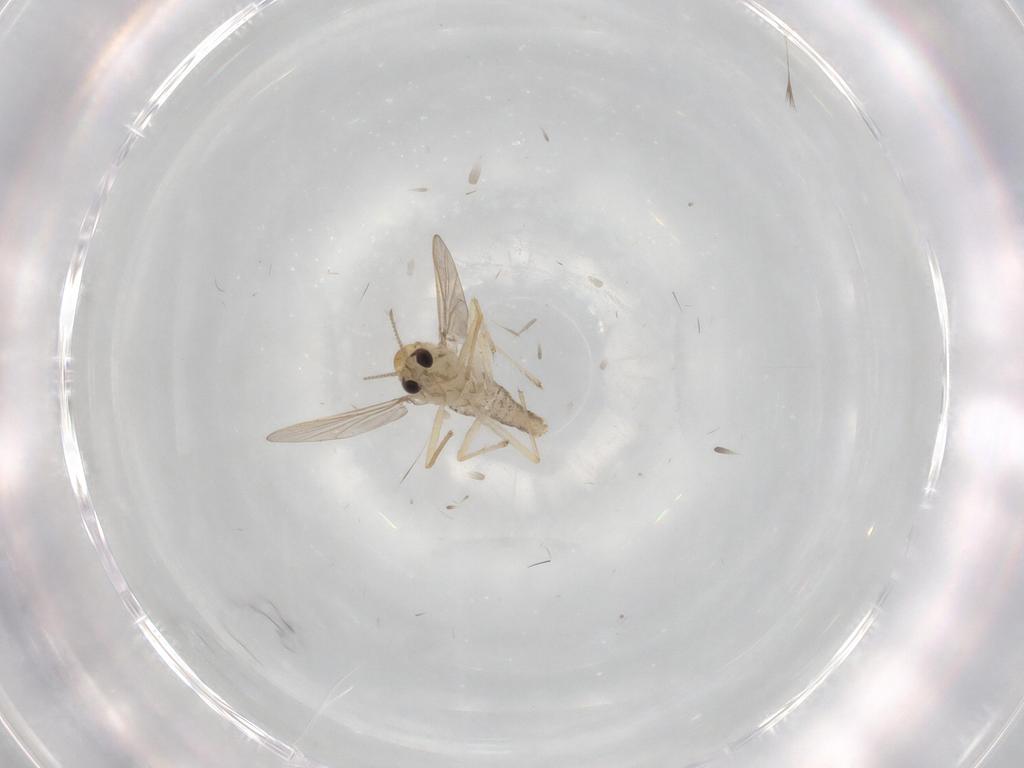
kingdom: Animalia
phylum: Arthropoda
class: Insecta
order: Diptera
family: Chironomidae
